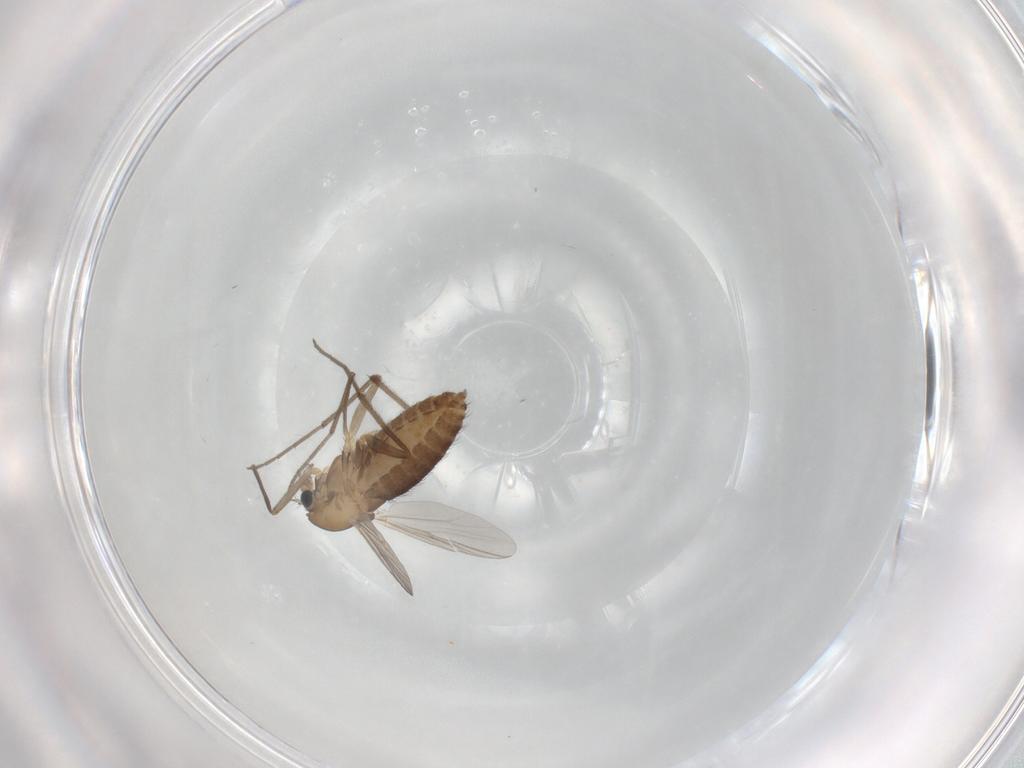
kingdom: Animalia
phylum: Arthropoda
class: Insecta
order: Diptera
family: Chironomidae
